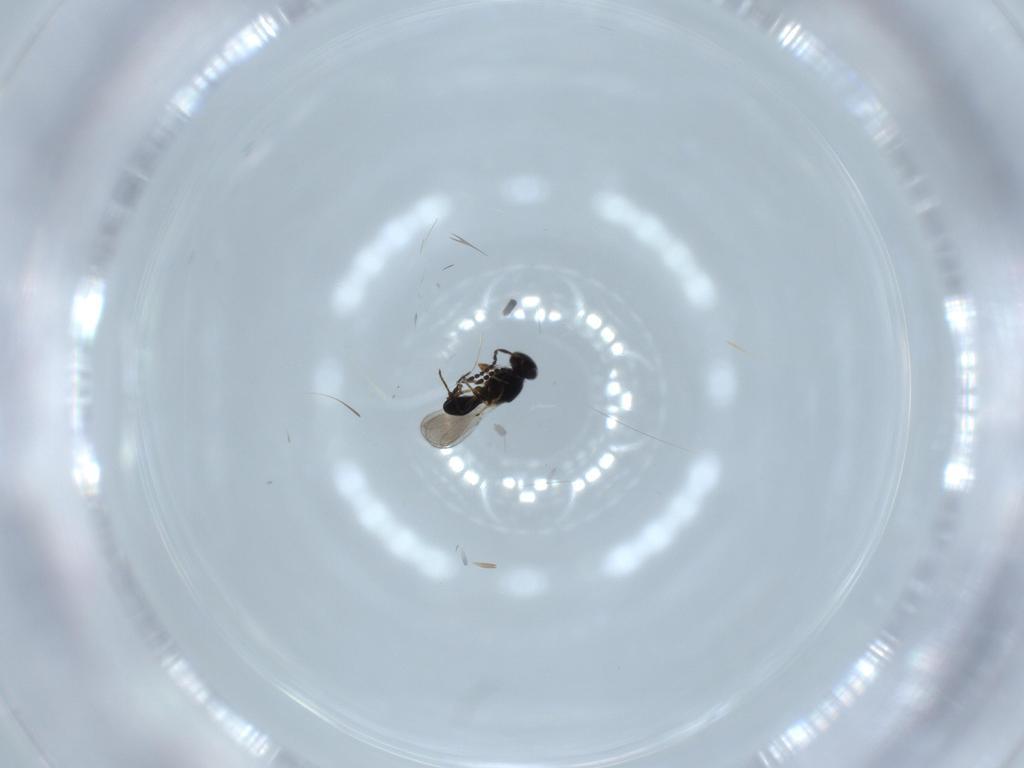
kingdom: Animalia
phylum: Arthropoda
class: Insecta
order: Hymenoptera
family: Platygastridae
